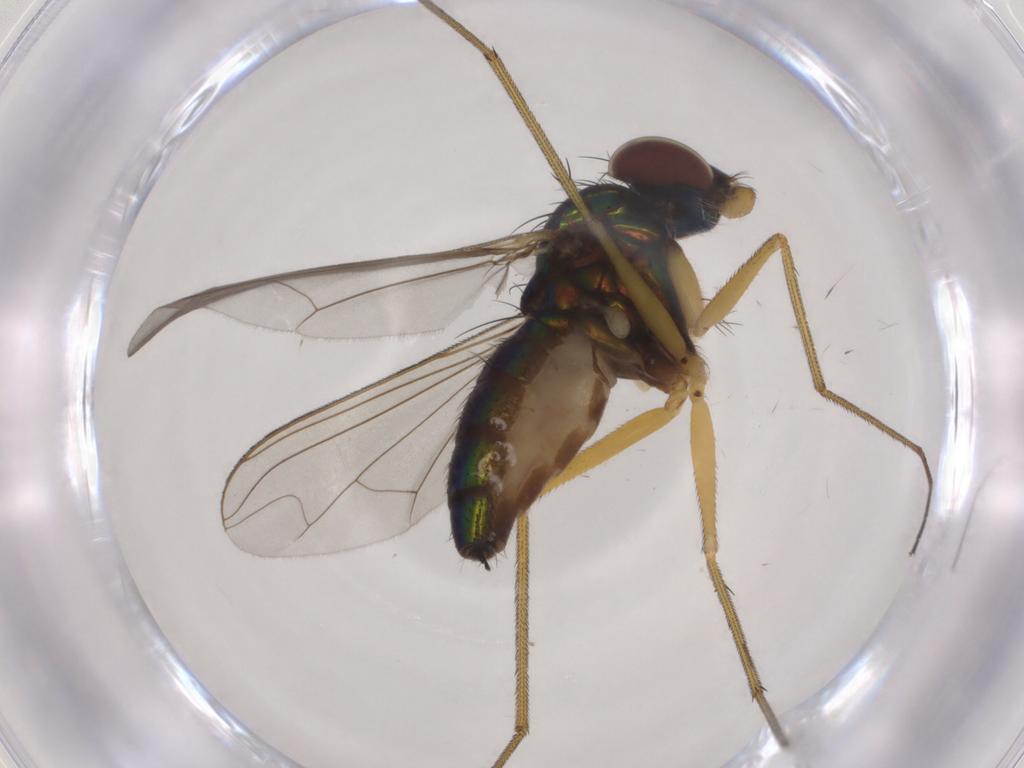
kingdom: Animalia
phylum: Arthropoda
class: Insecta
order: Diptera
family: Dolichopodidae
